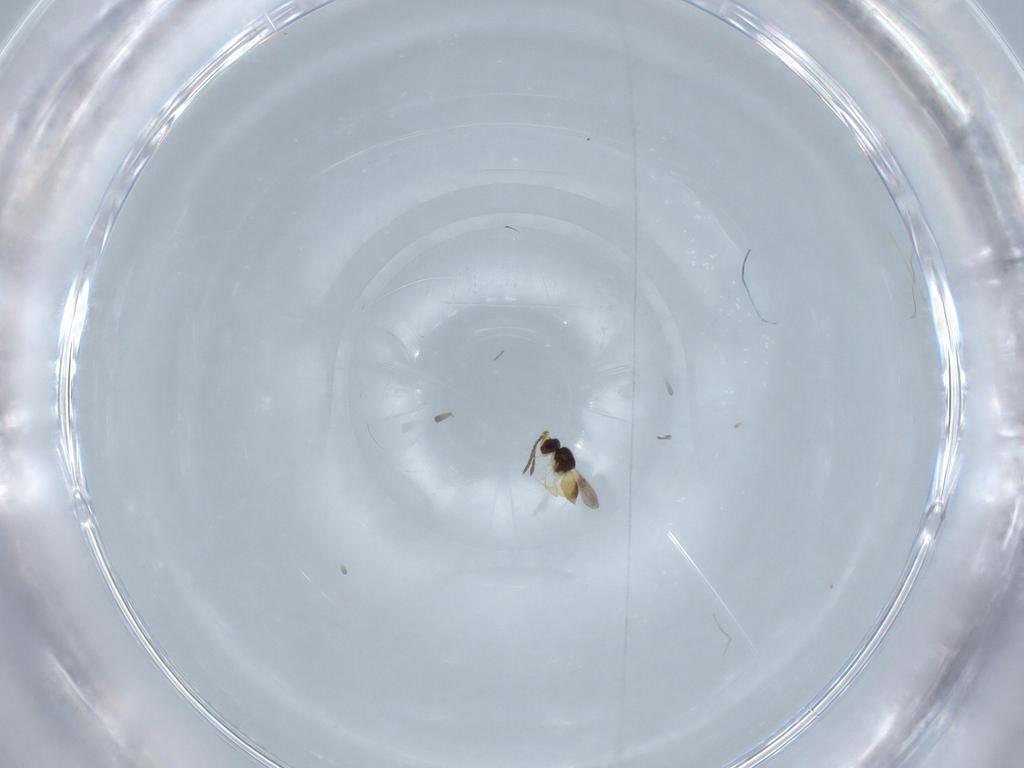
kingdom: Animalia
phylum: Arthropoda
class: Insecta
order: Hymenoptera
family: Ceraphronidae
